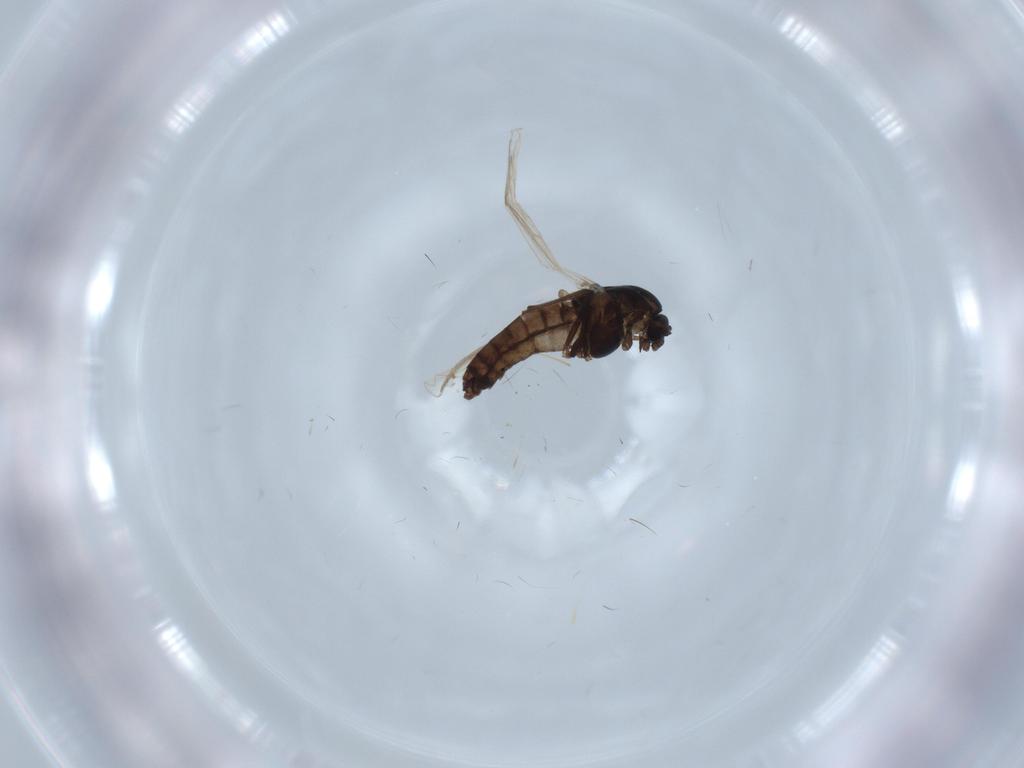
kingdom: Animalia
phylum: Arthropoda
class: Insecta
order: Diptera
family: Chironomidae
